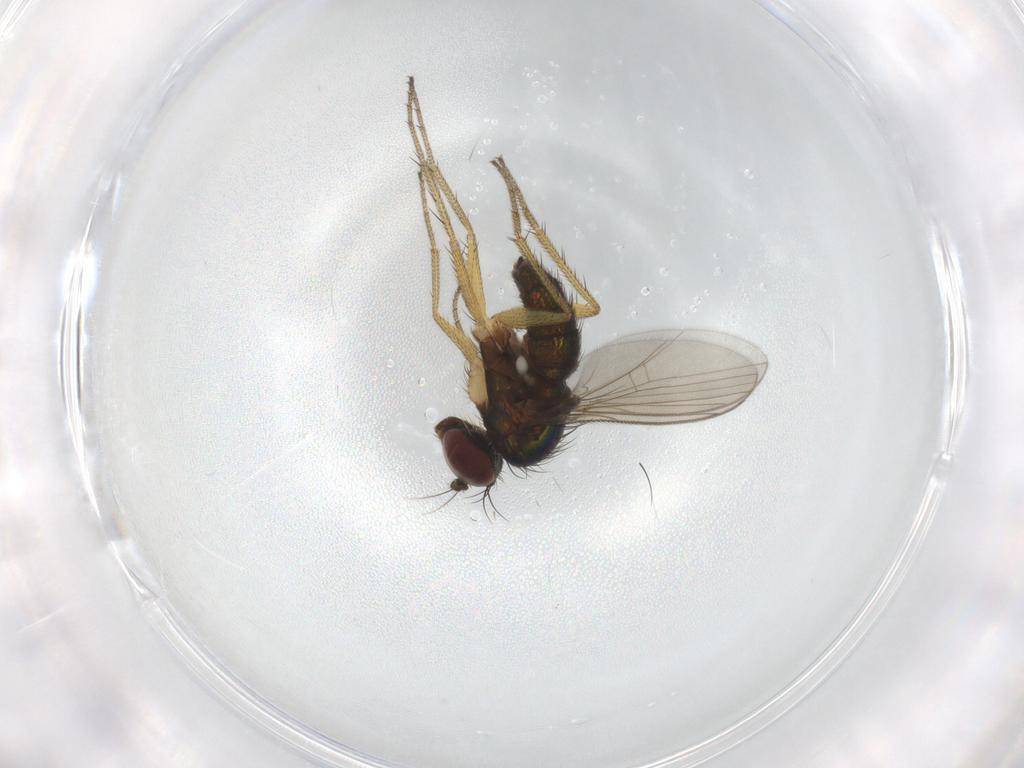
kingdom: Animalia
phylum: Arthropoda
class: Insecta
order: Diptera
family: Dolichopodidae
